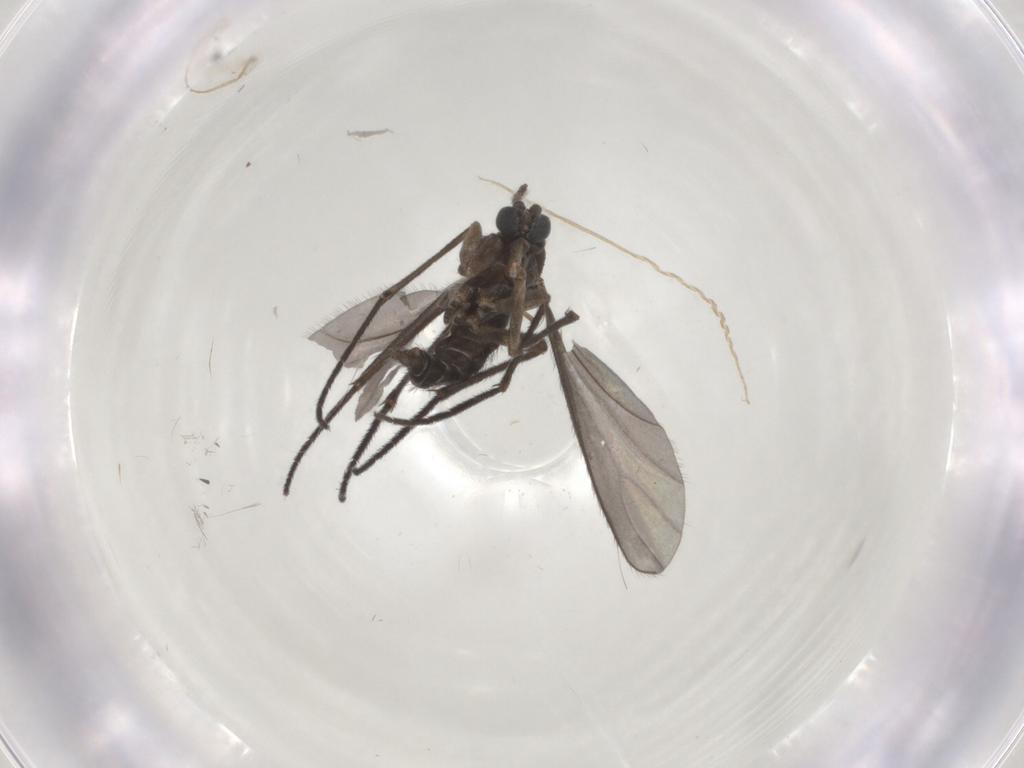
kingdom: Animalia
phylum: Arthropoda
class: Insecta
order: Diptera
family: Sciaridae
